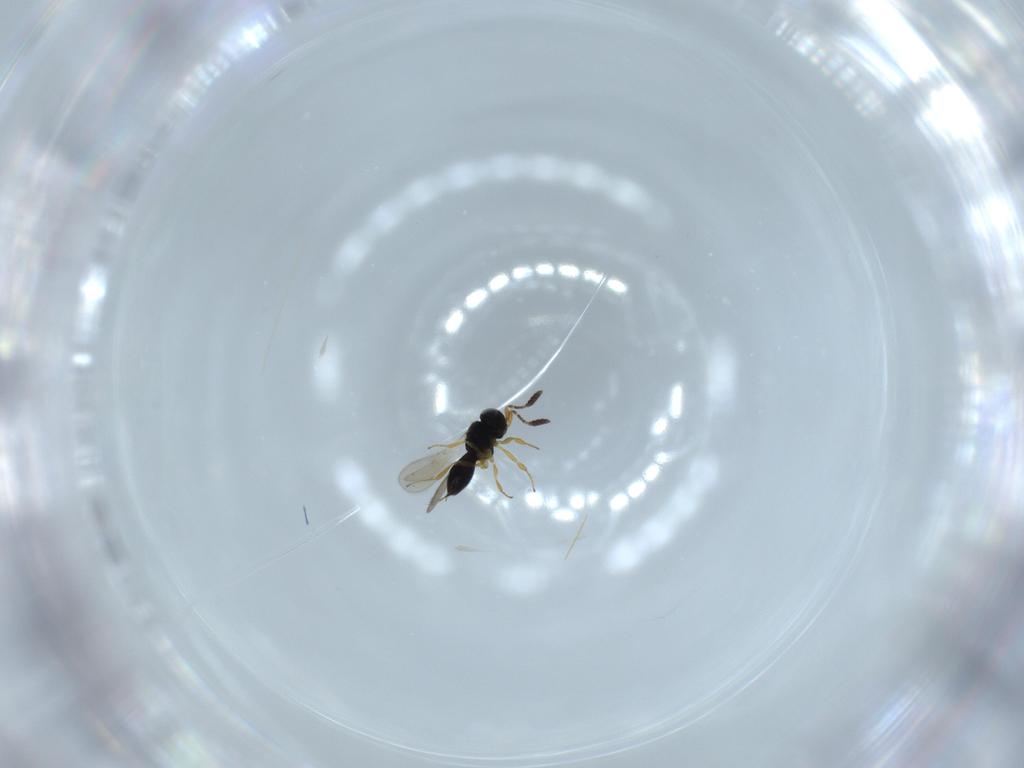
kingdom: Animalia
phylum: Arthropoda
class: Insecta
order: Hymenoptera
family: Scelionidae
